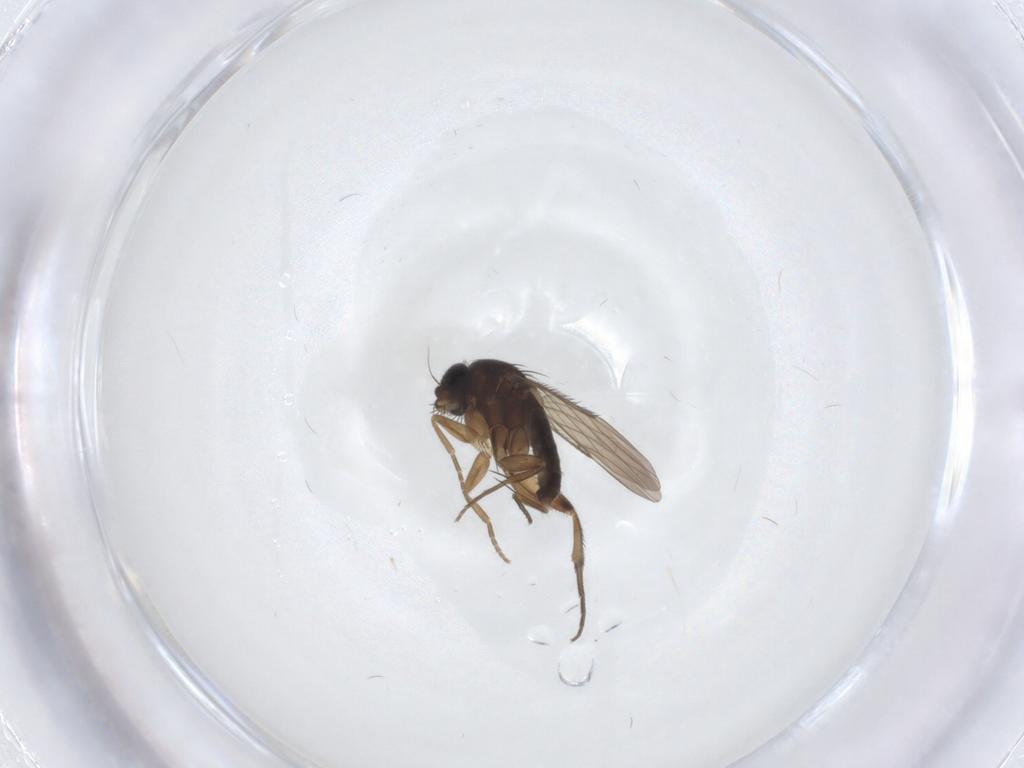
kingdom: Animalia
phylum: Arthropoda
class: Insecta
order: Diptera
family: Phoridae
